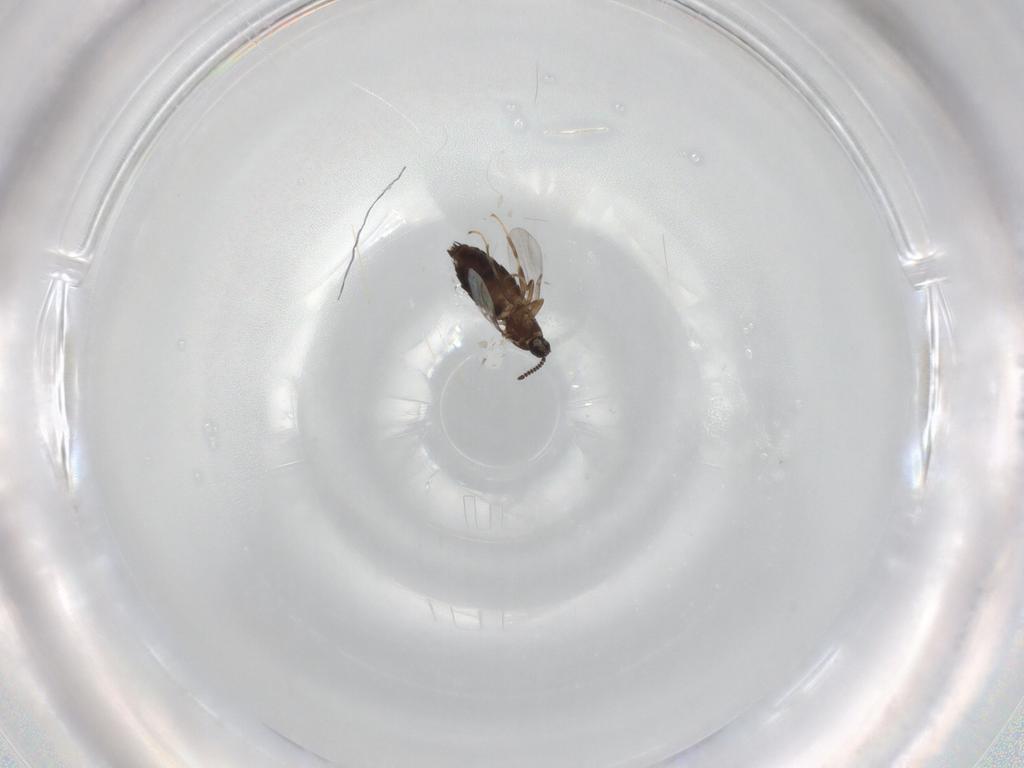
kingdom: Animalia
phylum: Arthropoda
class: Insecta
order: Diptera
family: Scatopsidae
